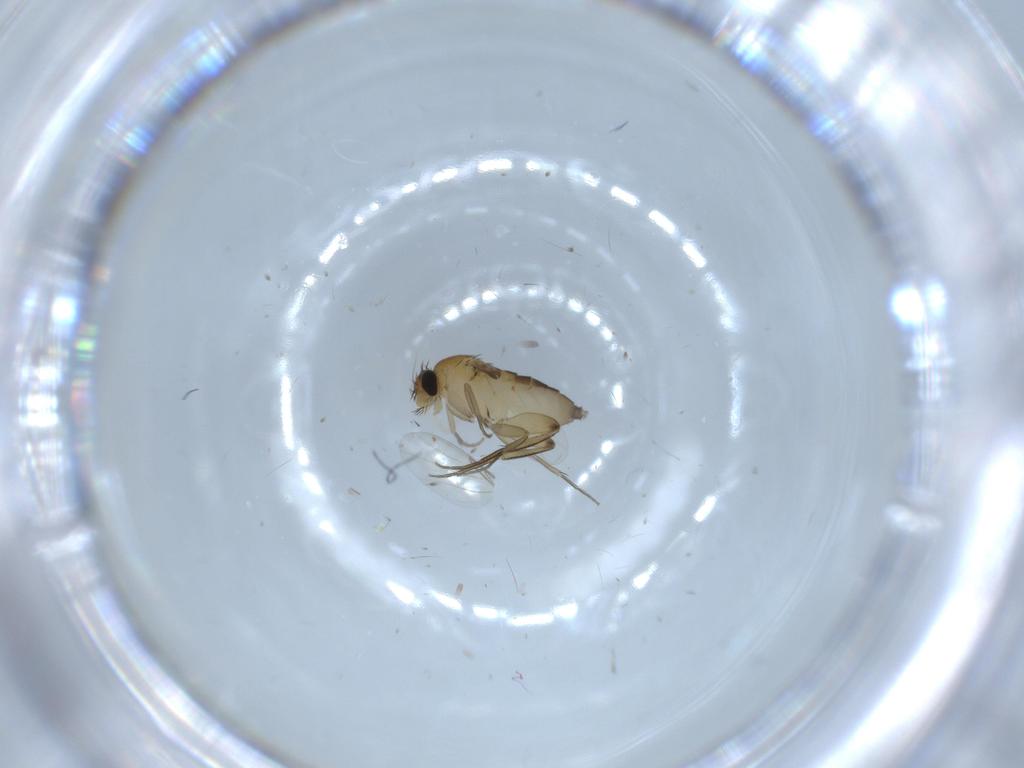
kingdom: Animalia
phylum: Arthropoda
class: Insecta
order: Diptera
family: Phoridae
